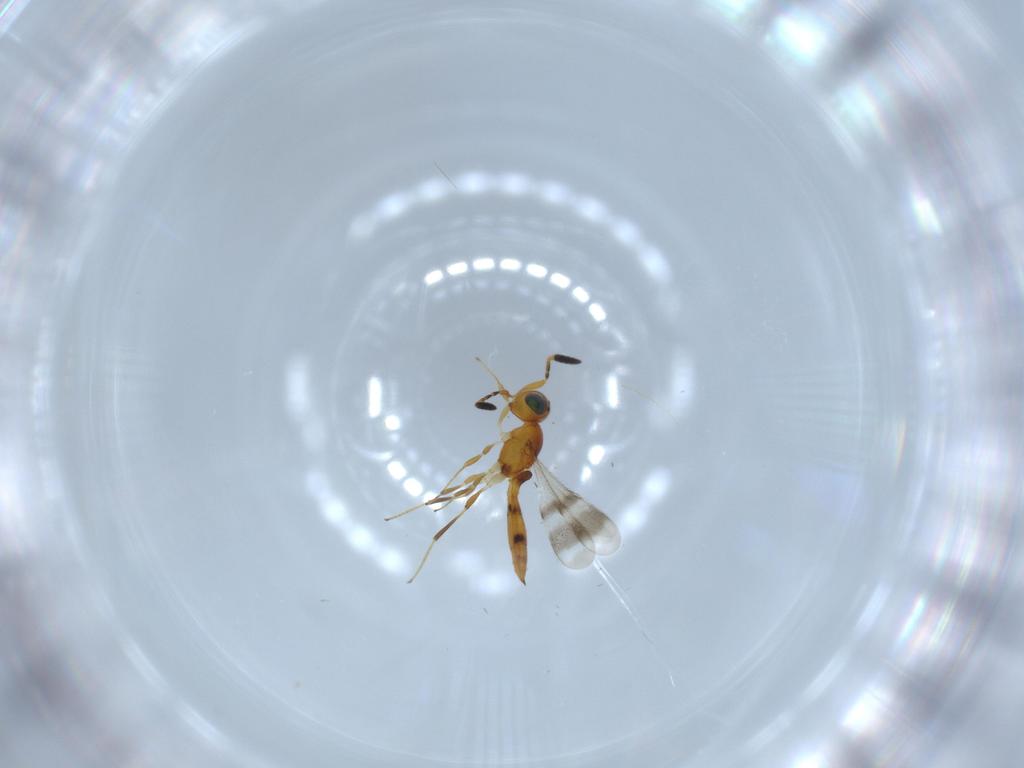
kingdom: Animalia
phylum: Arthropoda
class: Insecta
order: Hymenoptera
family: Scelionidae
